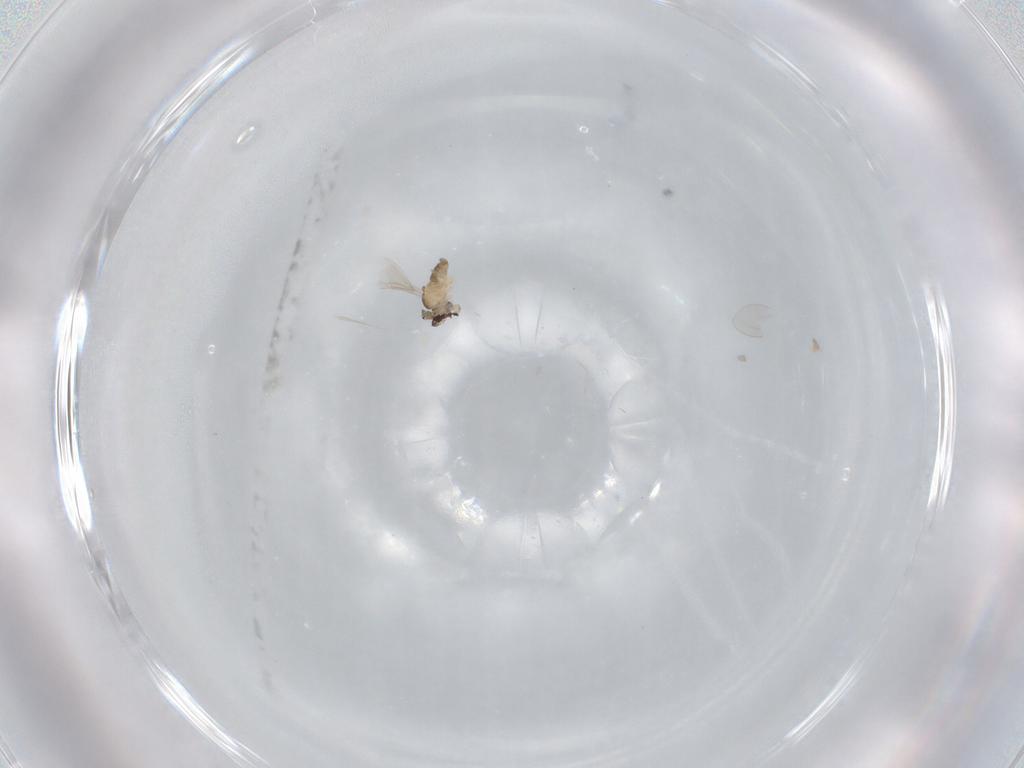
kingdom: Animalia
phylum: Arthropoda
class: Insecta
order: Diptera
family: Cecidomyiidae
